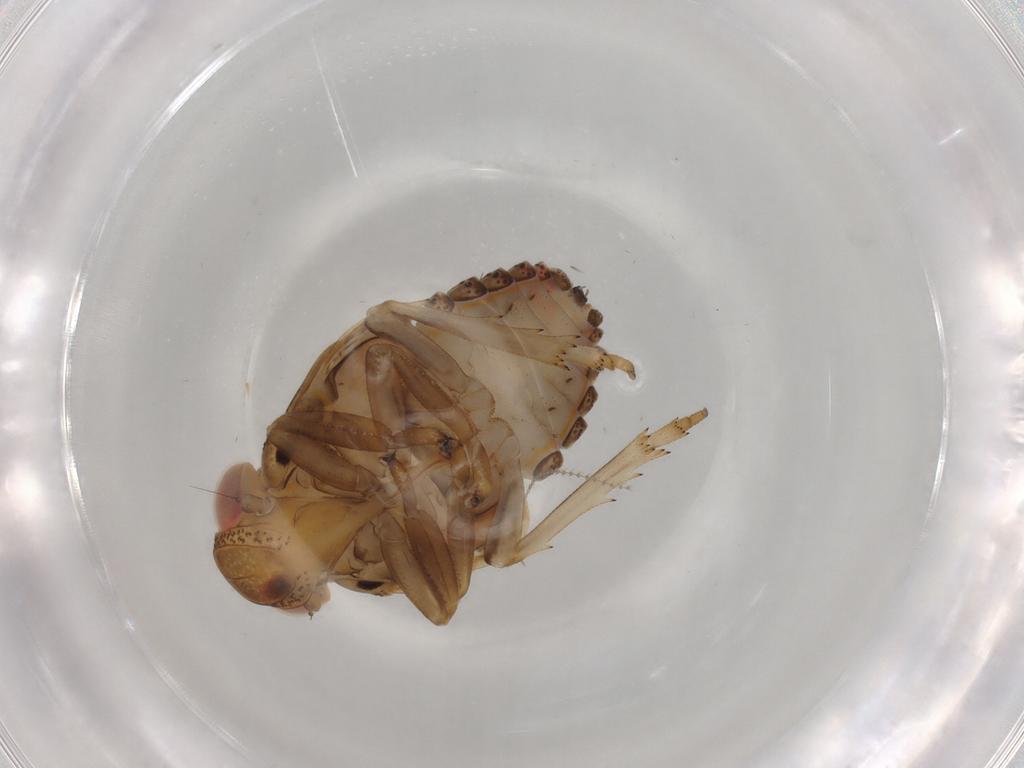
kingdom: Animalia
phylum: Arthropoda
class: Insecta
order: Hemiptera
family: Issidae
